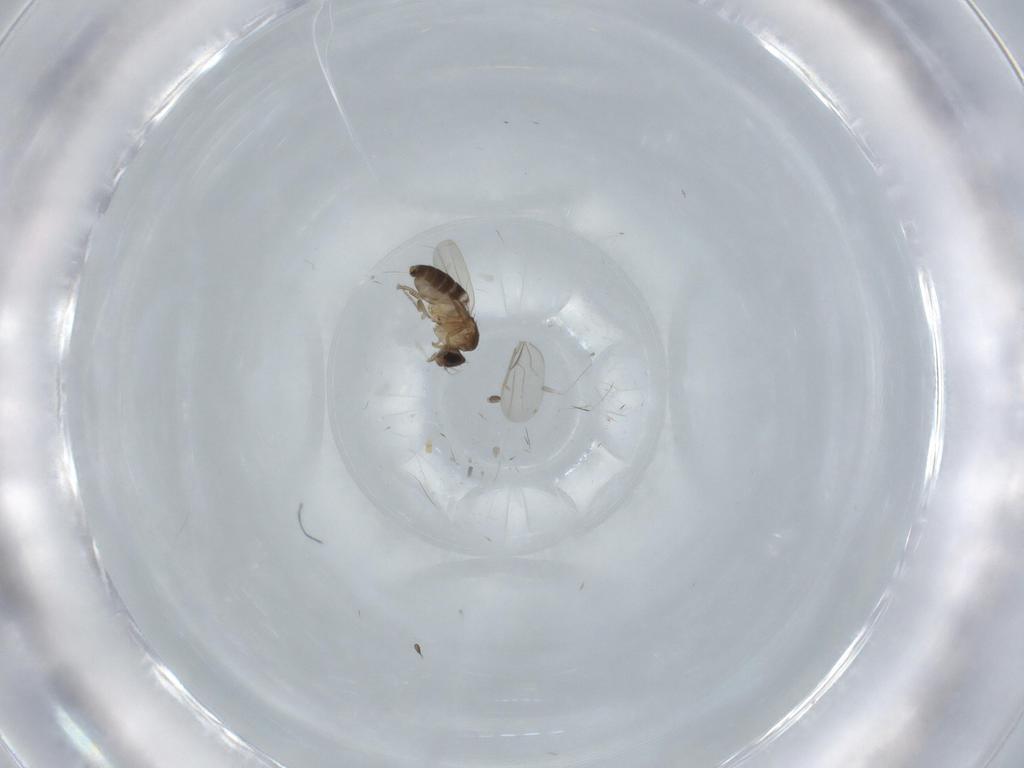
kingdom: Animalia
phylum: Arthropoda
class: Insecta
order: Diptera
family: Phoridae
